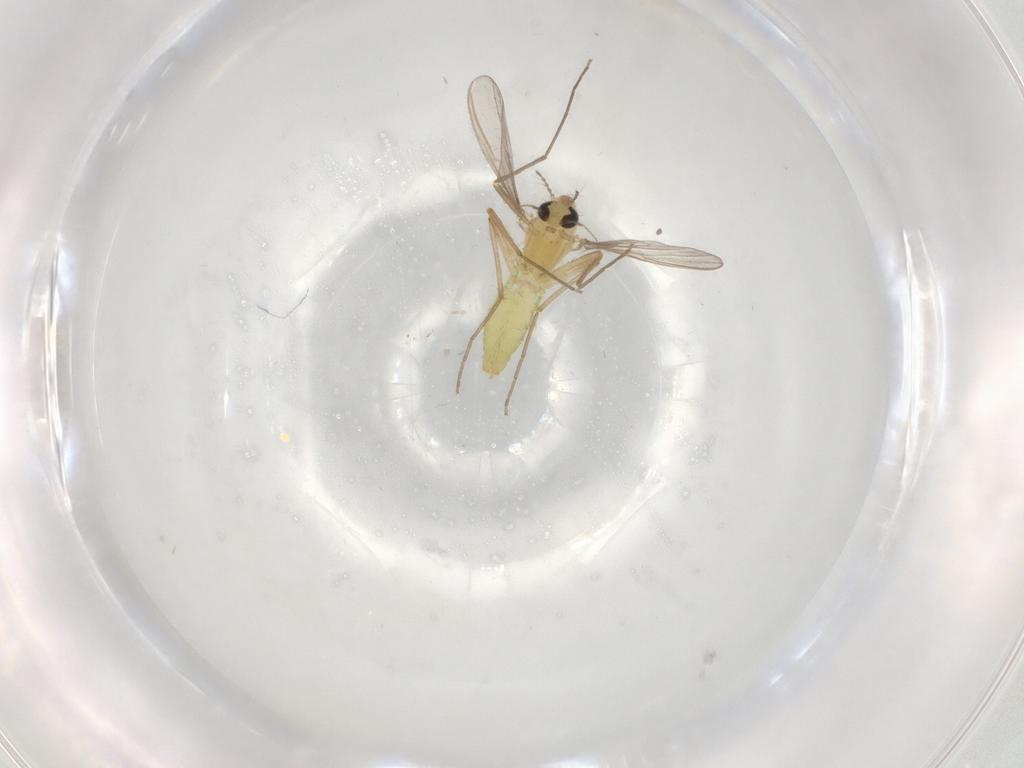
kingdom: Animalia
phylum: Arthropoda
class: Insecta
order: Diptera
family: Chironomidae
